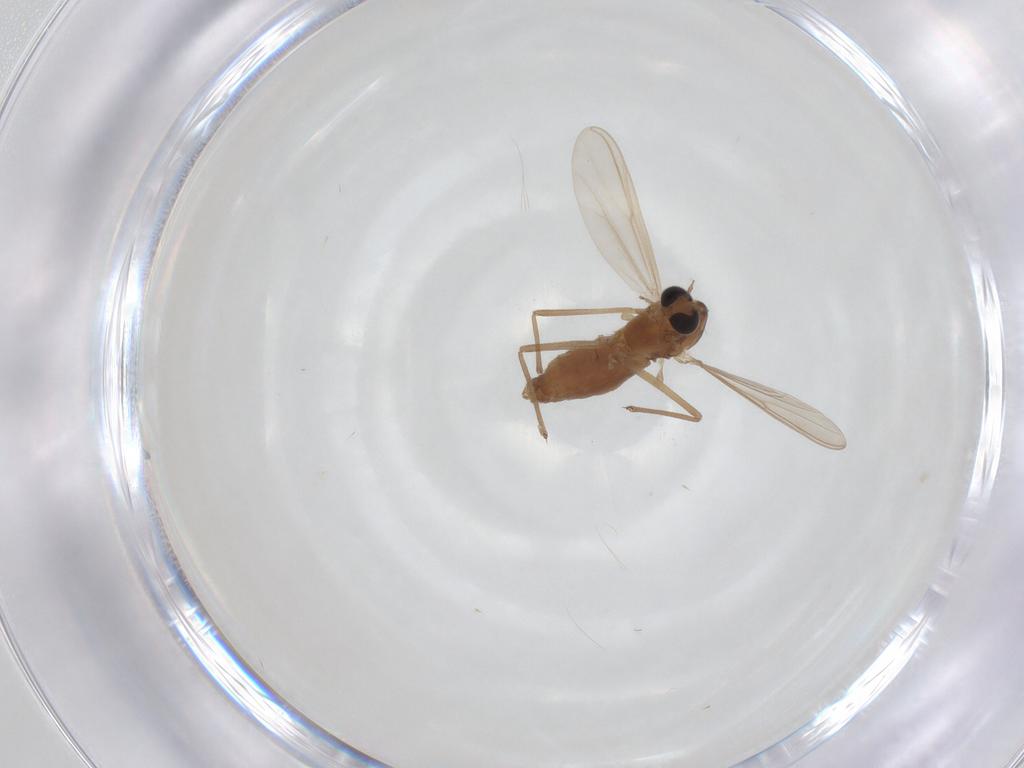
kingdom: Animalia
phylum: Arthropoda
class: Insecta
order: Diptera
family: Chironomidae
